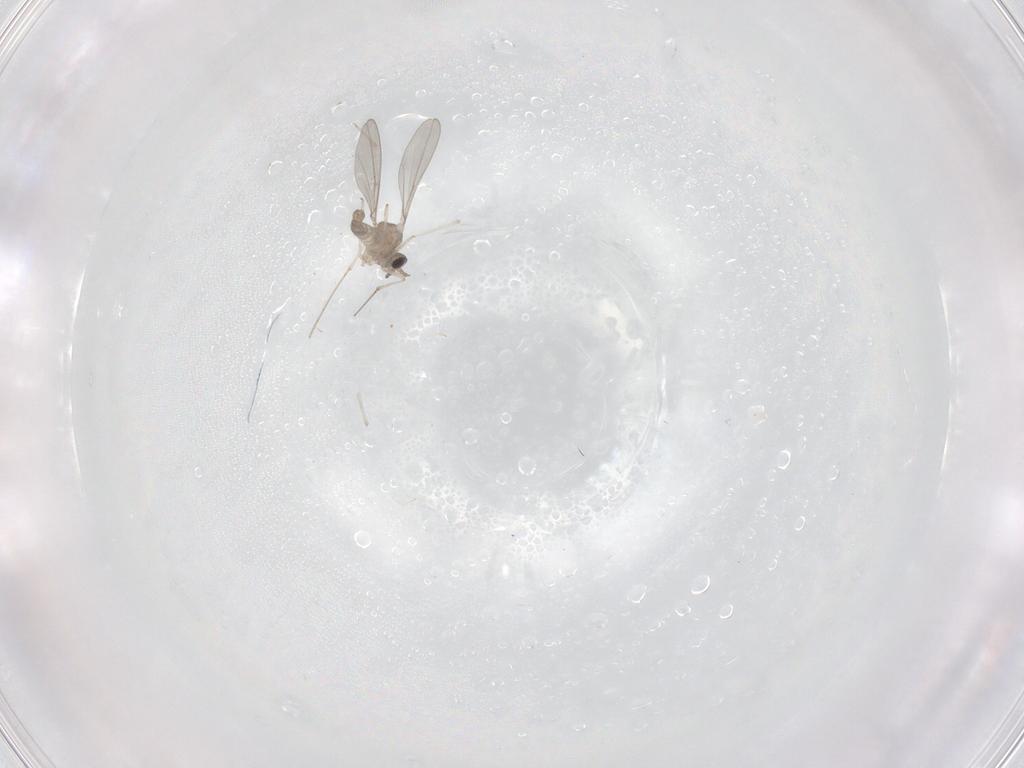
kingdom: Animalia
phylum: Arthropoda
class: Insecta
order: Diptera
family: Cecidomyiidae
